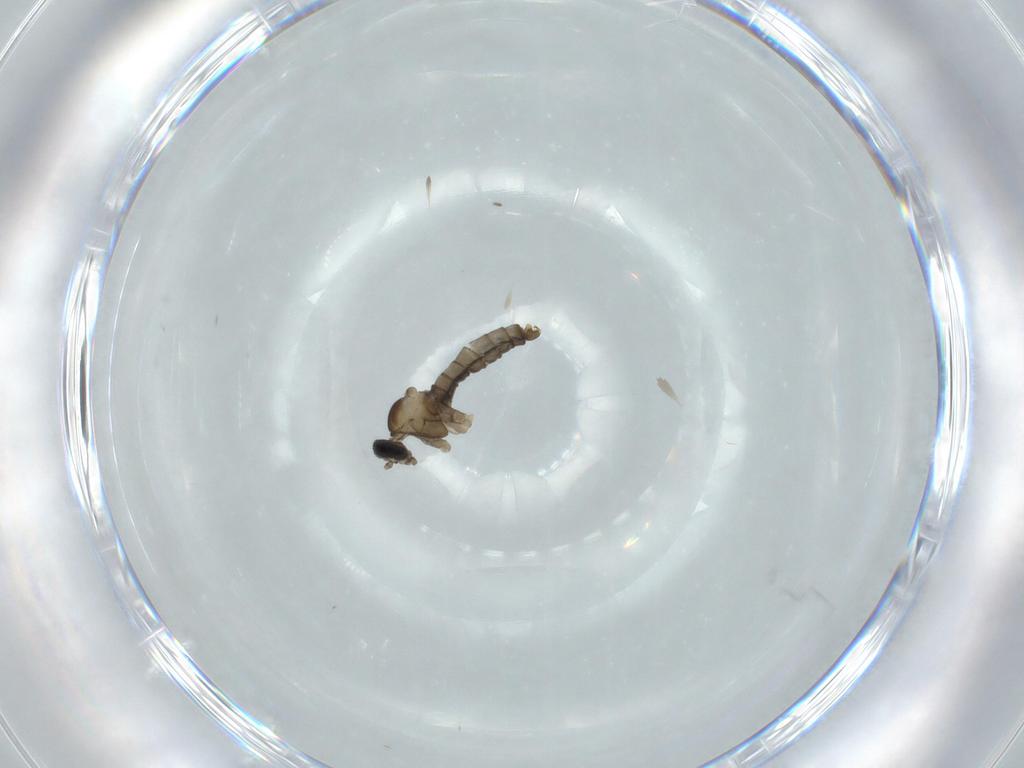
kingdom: Animalia
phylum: Arthropoda
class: Insecta
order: Diptera
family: Cecidomyiidae
